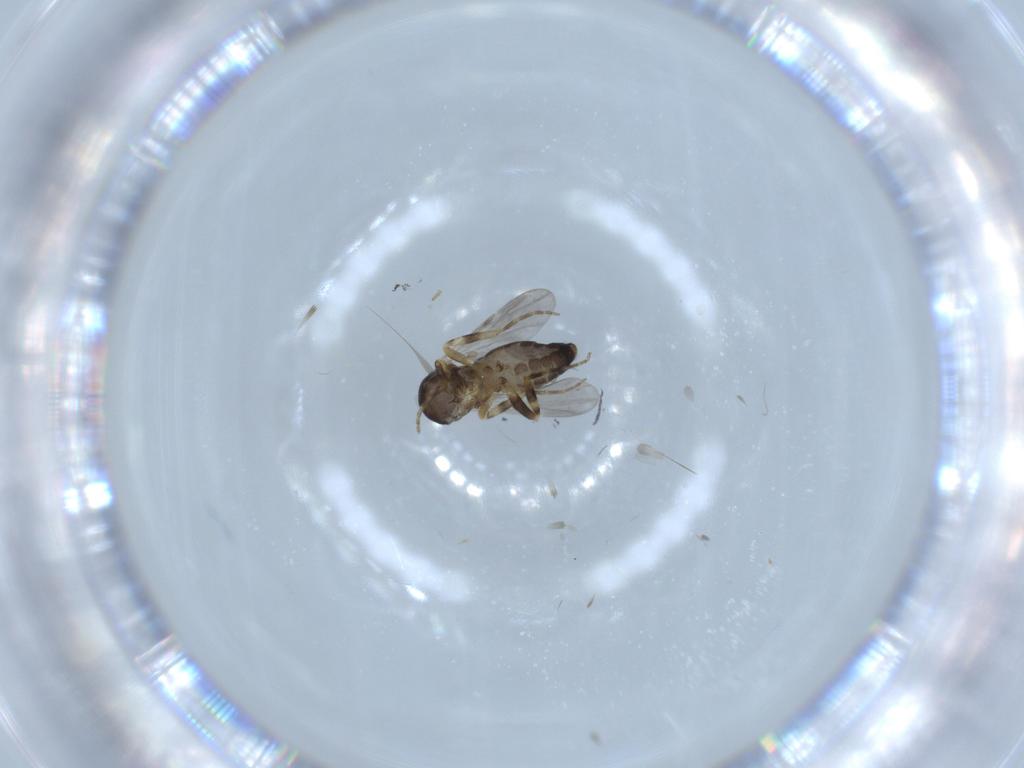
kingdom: Animalia
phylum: Arthropoda
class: Insecta
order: Diptera
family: Ceratopogonidae
